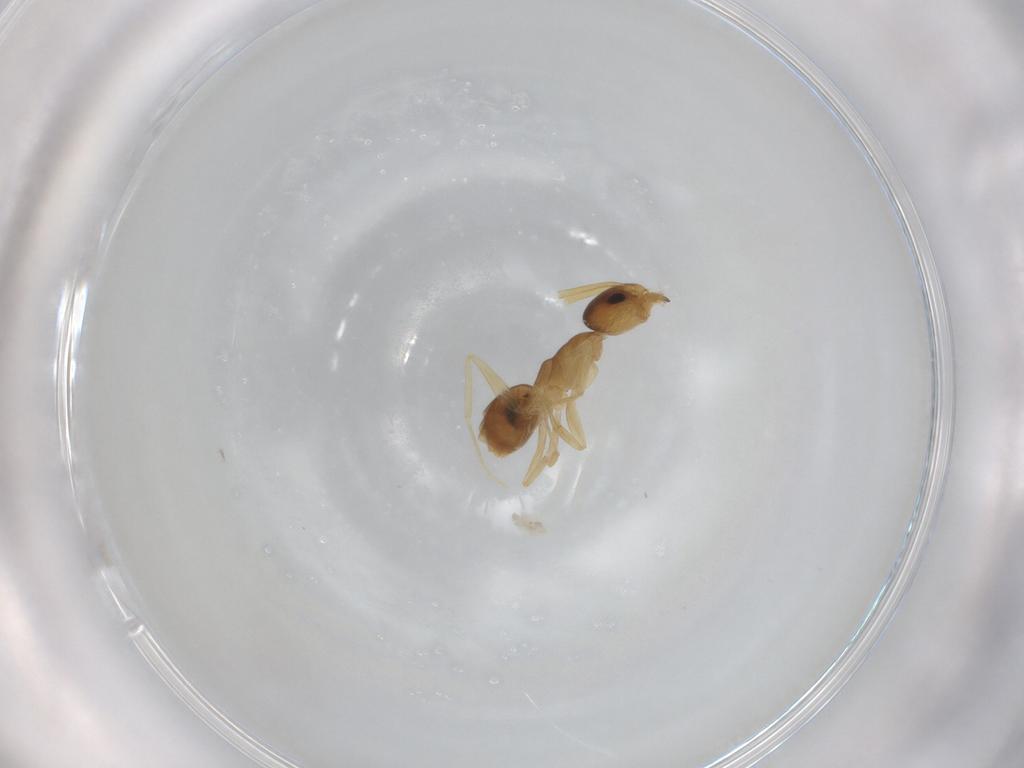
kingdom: Animalia
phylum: Arthropoda
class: Insecta
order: Hymenoptera
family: Formicidae
